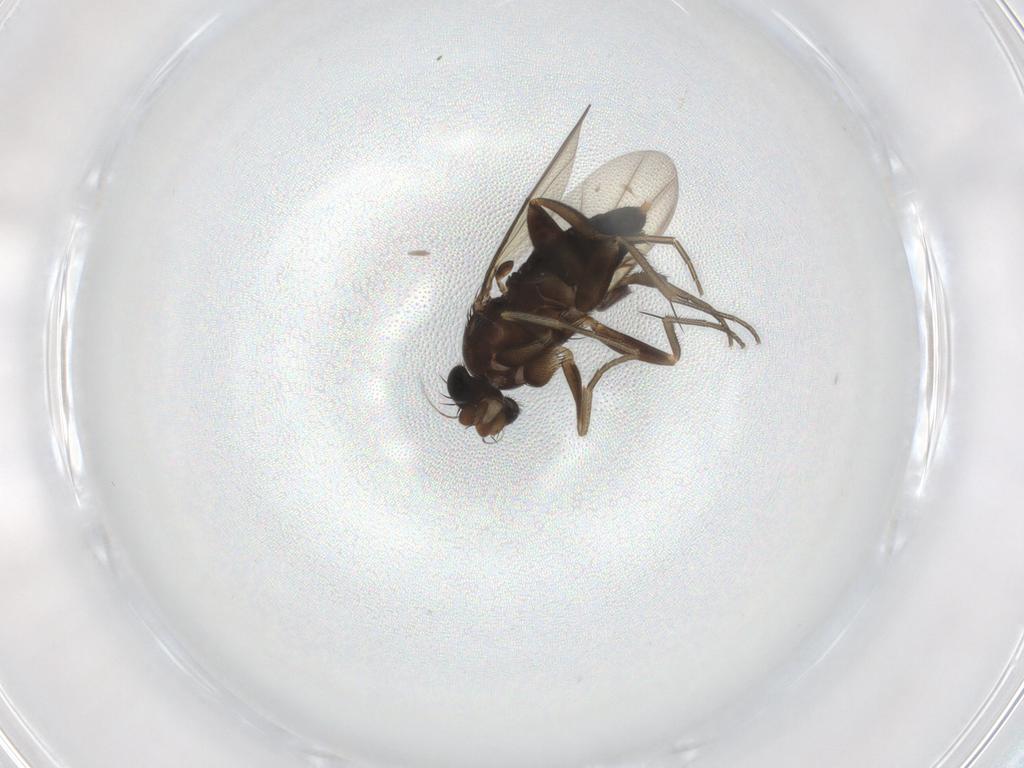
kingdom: Animalia
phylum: Arthropoda
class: Insecta
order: Diptera
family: Phoridae
